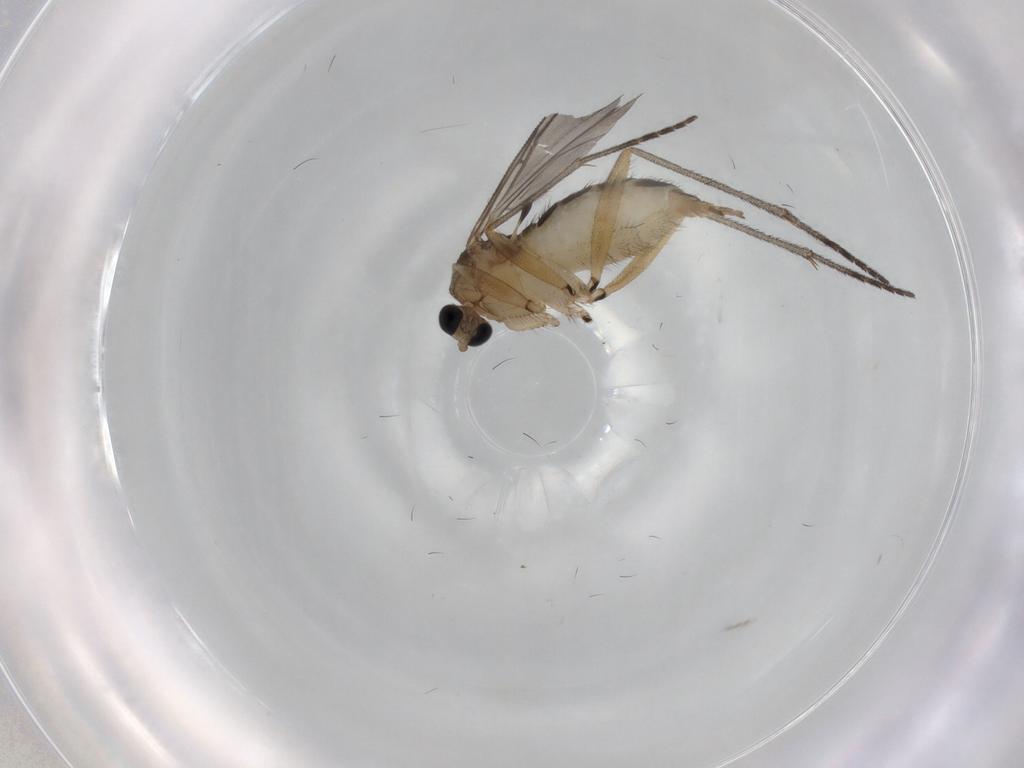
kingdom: Animalia
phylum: Arthropoda
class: Insecta
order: Diptera
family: Sciaridae
